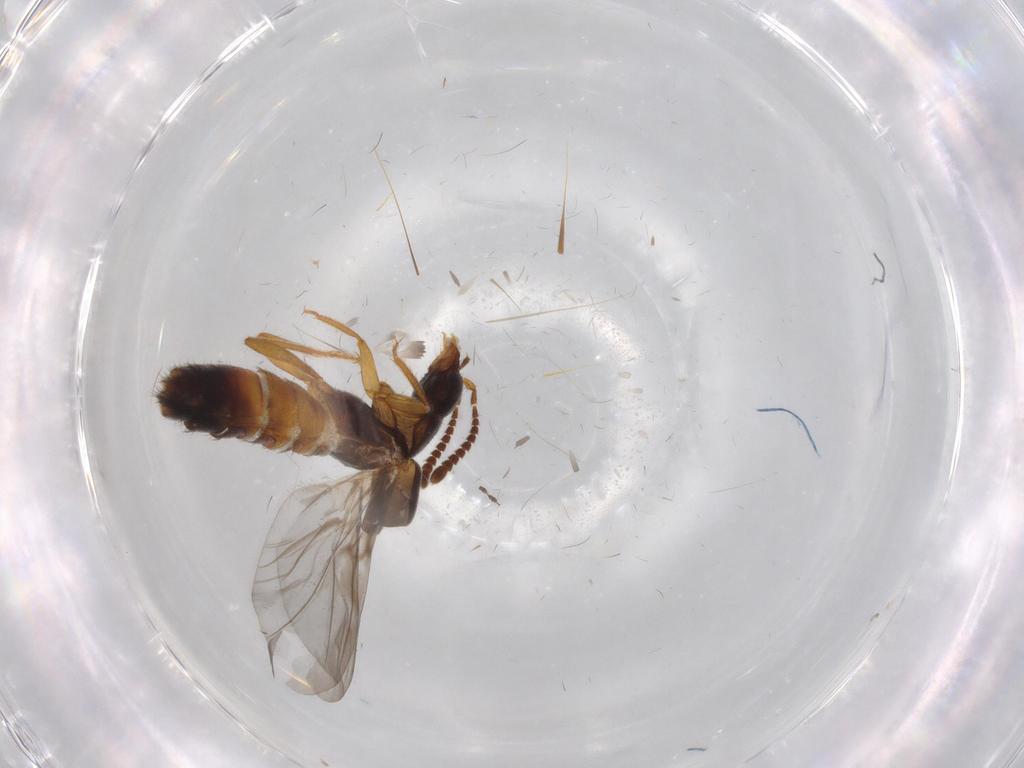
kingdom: Animalia
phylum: Arthropoda
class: Insecta
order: Coleoptera
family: Staphylinidae
